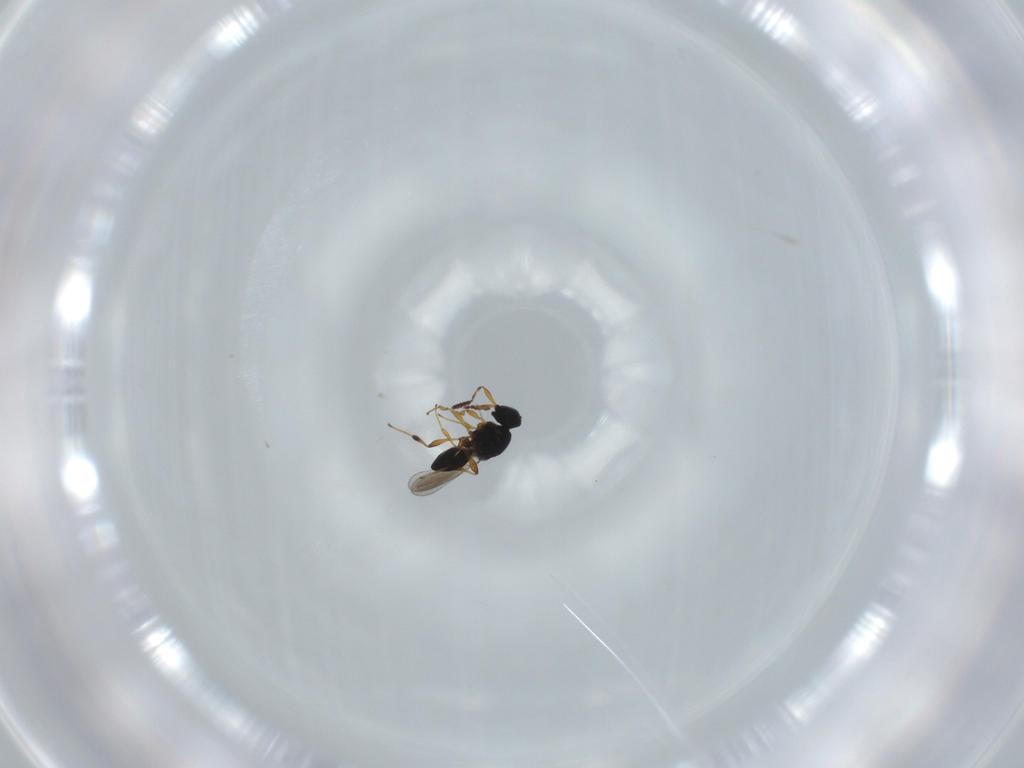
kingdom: Animalia
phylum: Arthropoda
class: Insecta
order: Hymenoptera
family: Platygastridae
